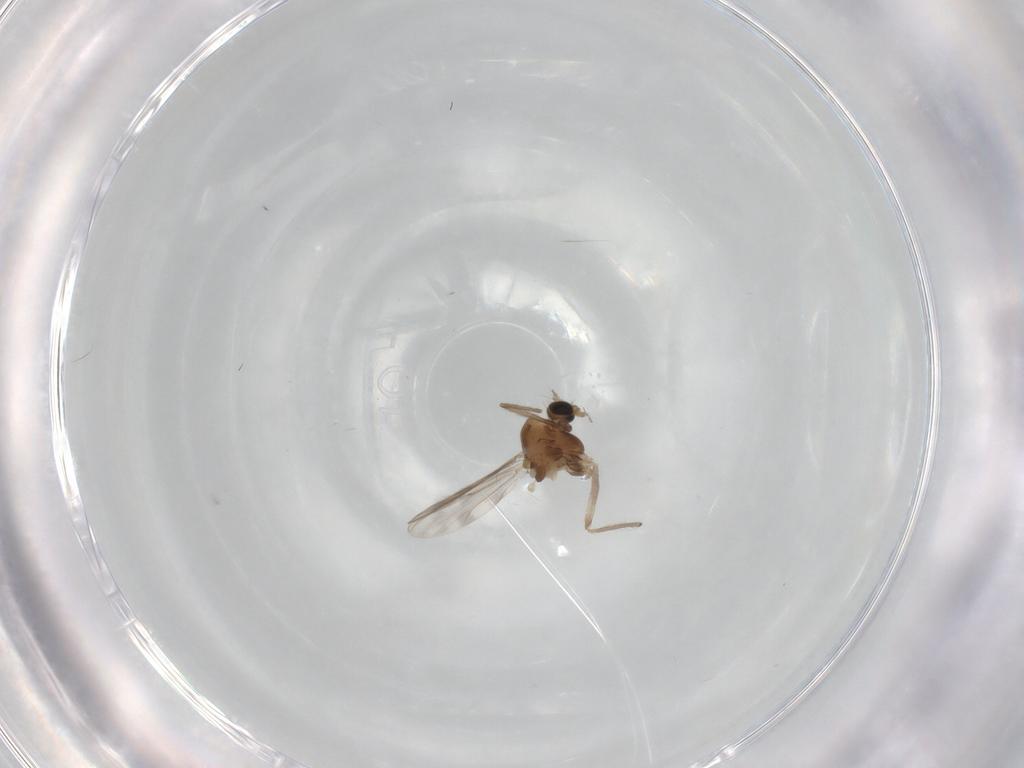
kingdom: Animalia
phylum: Arthropoda
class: Insecta
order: Diptera
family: Chironomidae
